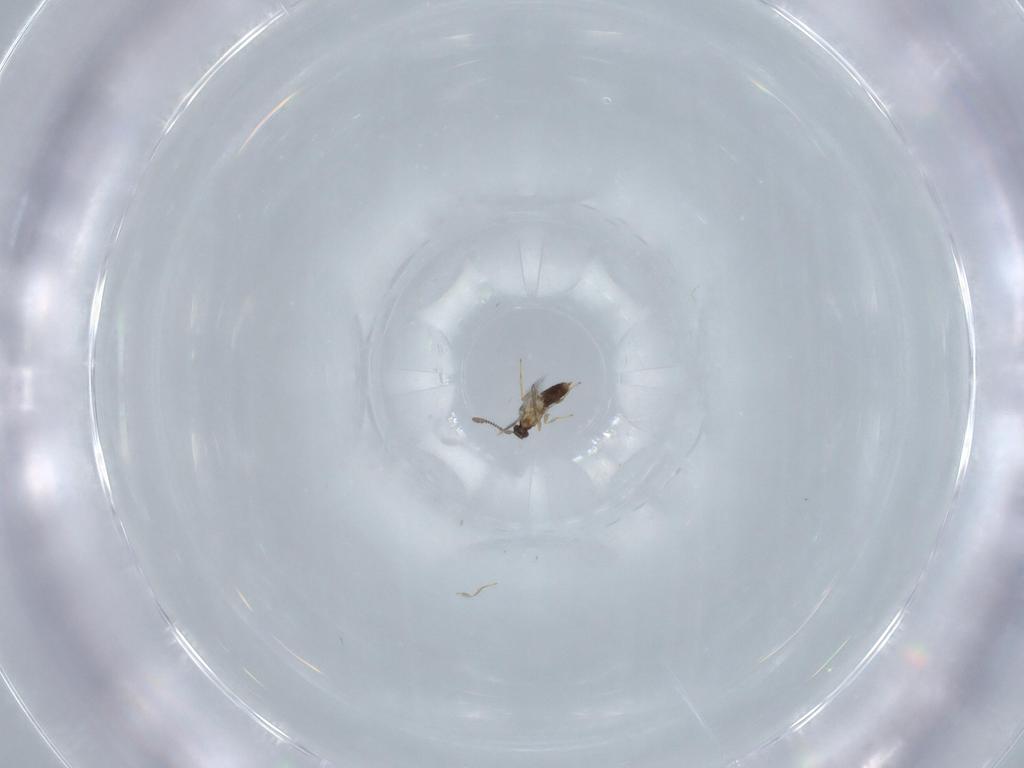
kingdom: Animalia
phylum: Arthropoda
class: Insecta
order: Hymenoptera
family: Mymaridae
